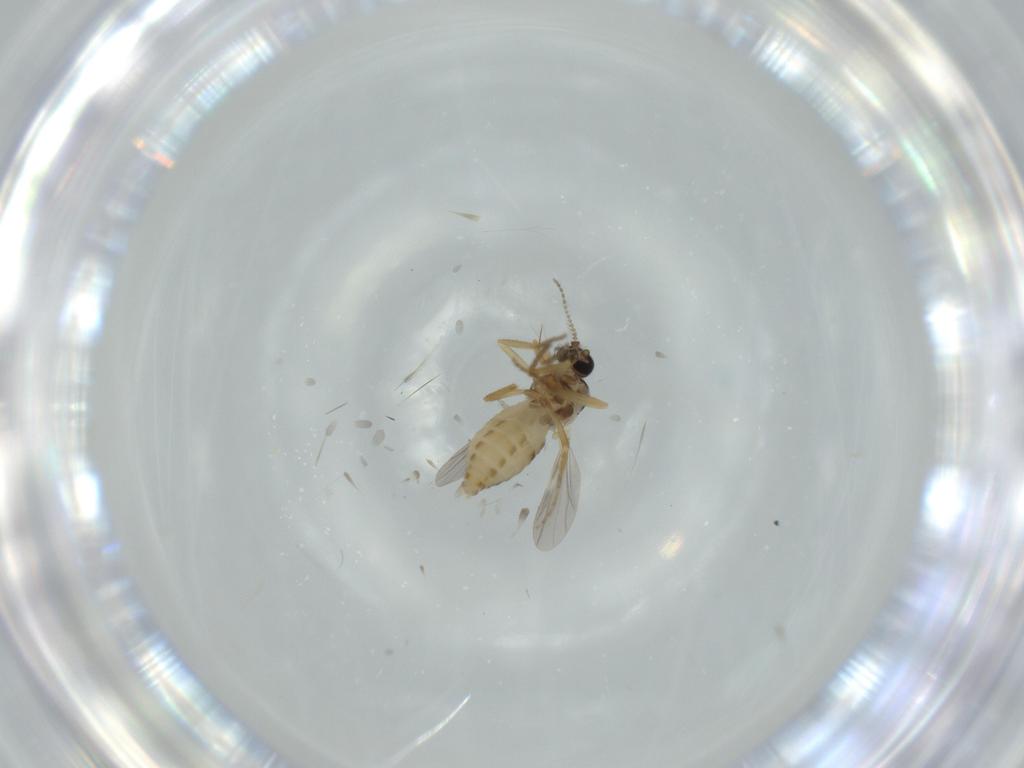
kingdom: Animalia
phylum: Arthropoda
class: Insecta
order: Diptera
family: Ceratopogonidae
